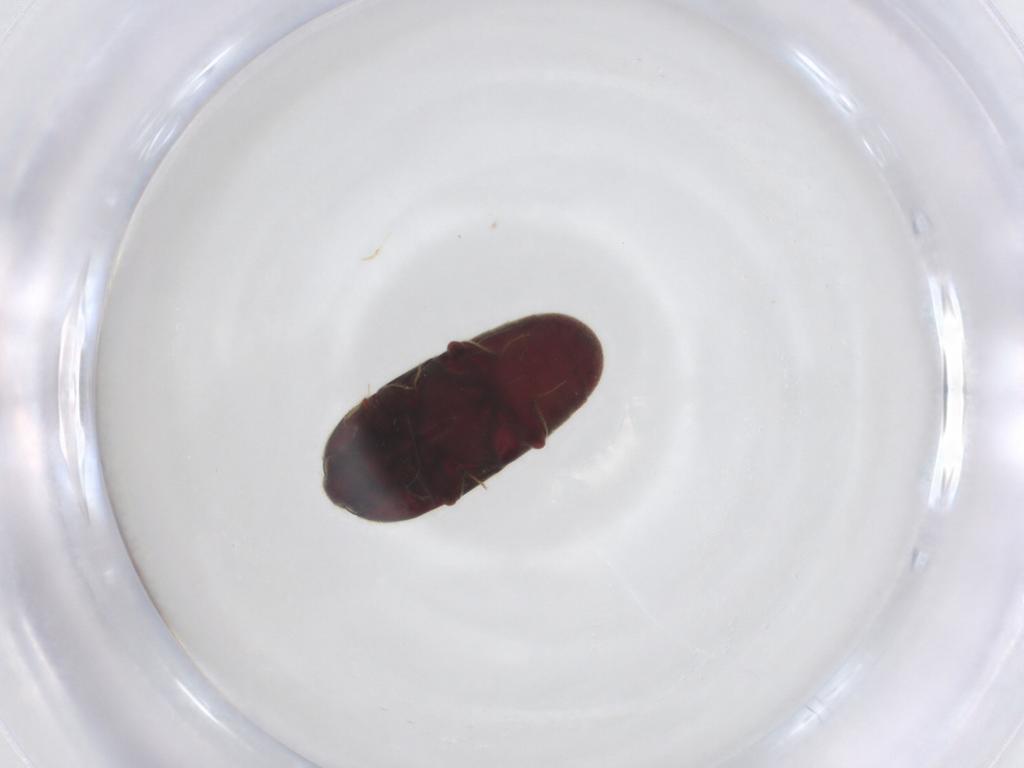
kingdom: Animalia
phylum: Arthropoda
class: Insecta
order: Coleoptera
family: Throscidae
